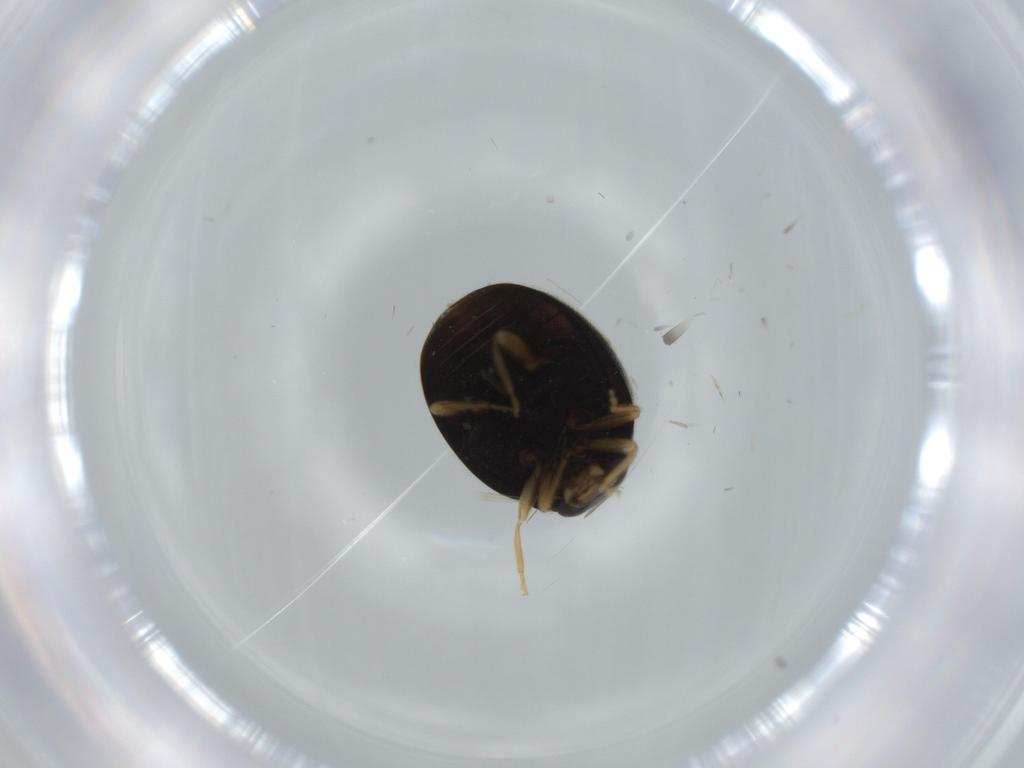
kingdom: Animalia
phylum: Arthropoda
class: Insecta
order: Coleoptera
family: Coccinellidae
